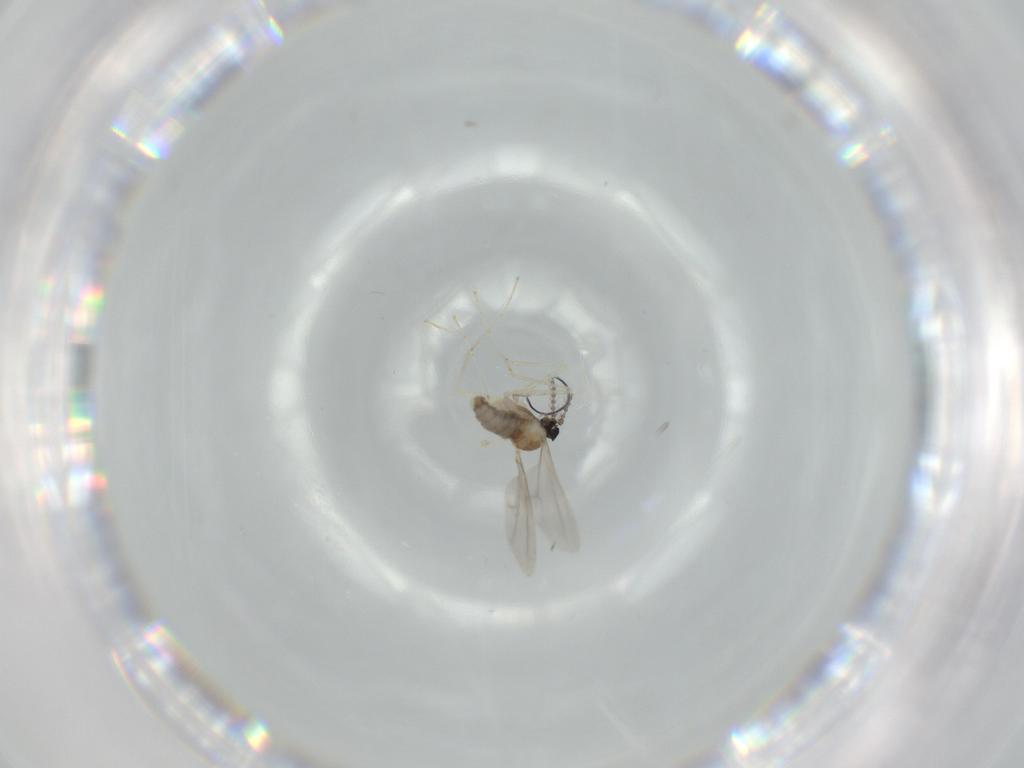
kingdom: Animalia
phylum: Arthropoda
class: Insecta
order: Diptera
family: Cecidomyiidae
